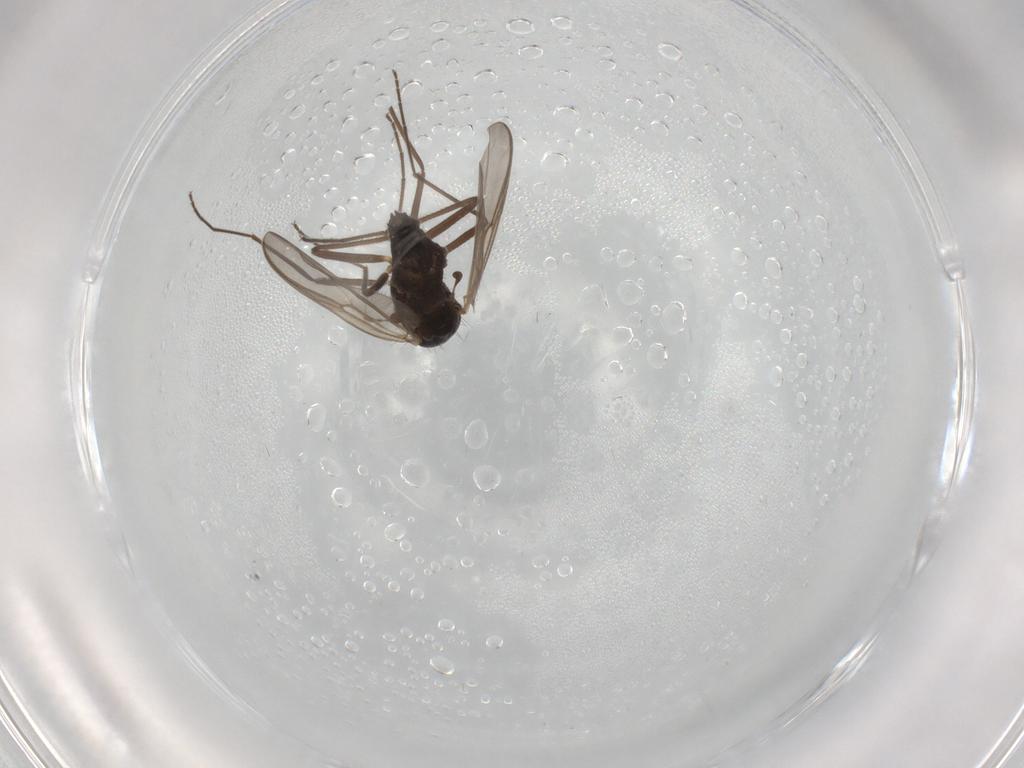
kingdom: Animalia
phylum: Arthropoda
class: Insecta
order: Diptera
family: Chironomidae
